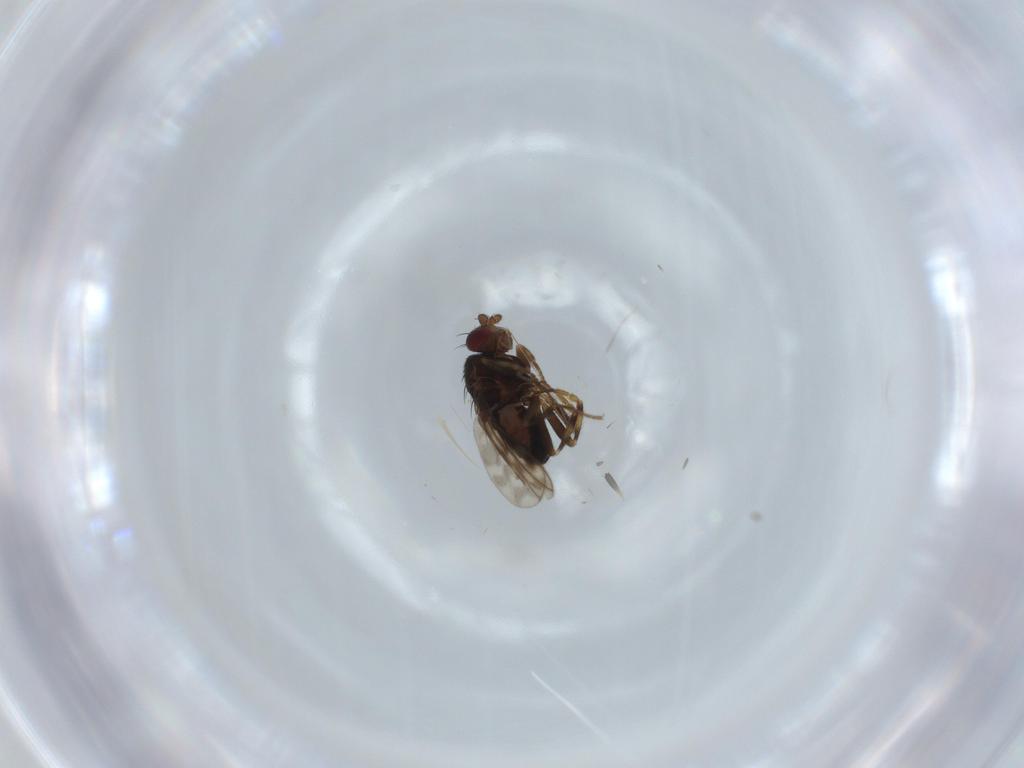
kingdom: Animalia
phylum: Arthropoda
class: Insecta
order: Diptera
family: Sphaeroceridae
